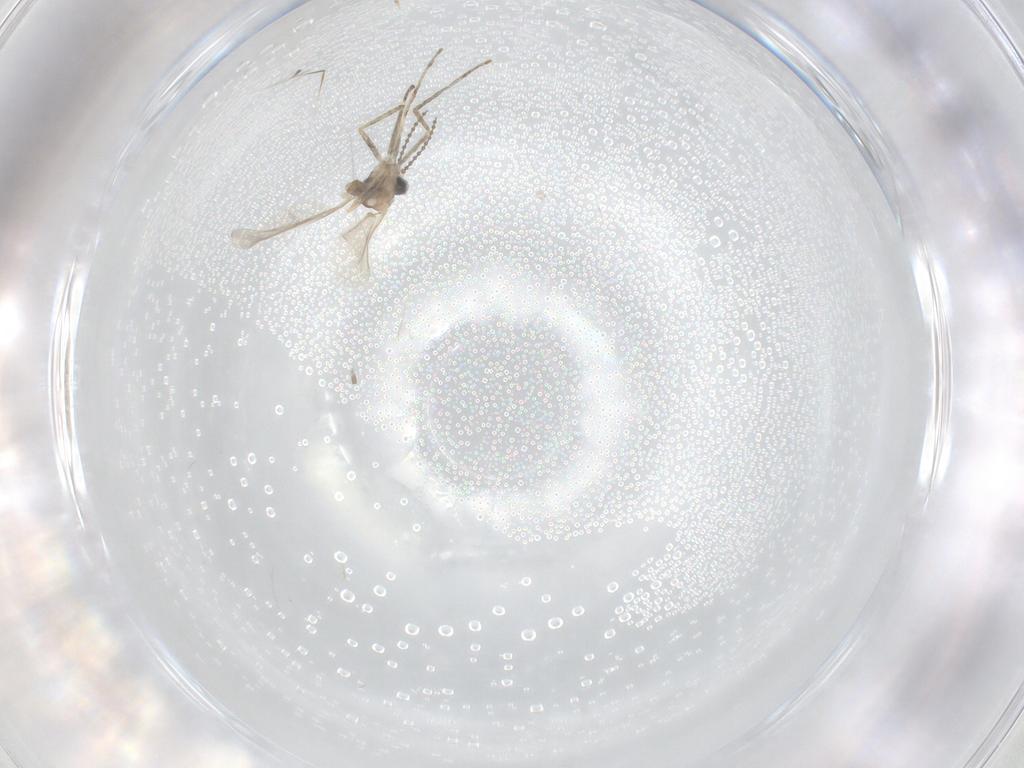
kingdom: Animalia
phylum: Arthropoda
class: Insecta
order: Diptera
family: Cecidomyiidae
